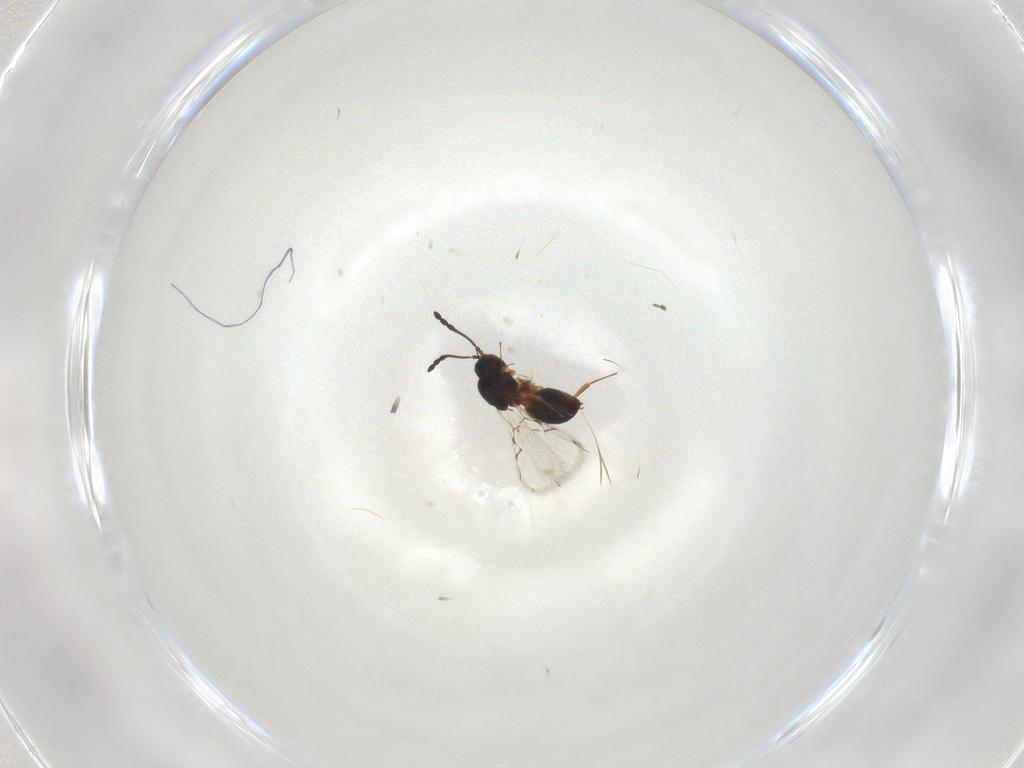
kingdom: Animalia
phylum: Arthropoda
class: Insecta
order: Hymenoptera
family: Figitidae
